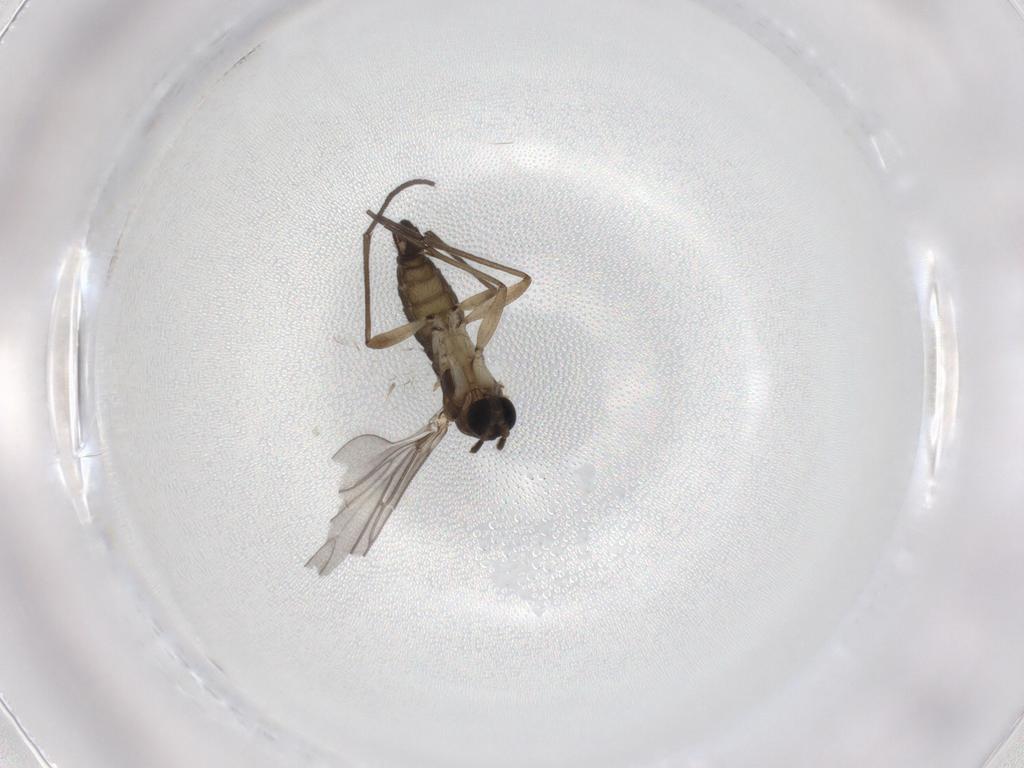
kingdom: Animalia
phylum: Arthropoda
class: Insecta
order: Diptera
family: Sciaridae
